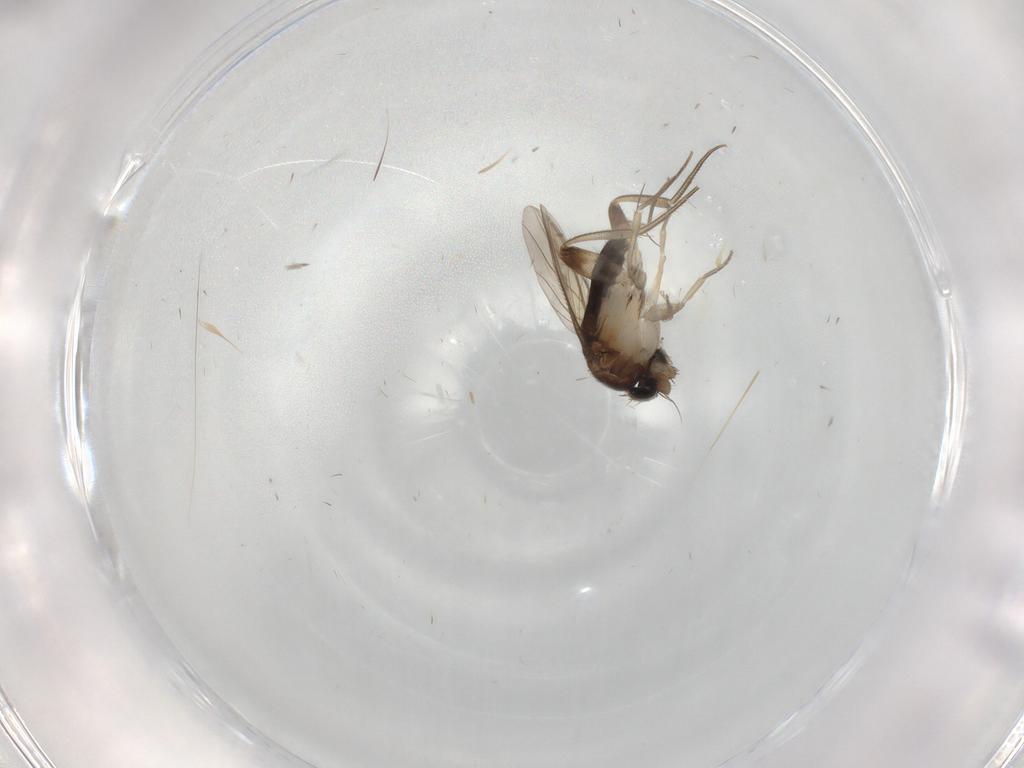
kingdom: Animalia
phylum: Arthropoda
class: Insecta
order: Diptera
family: Phoridae
